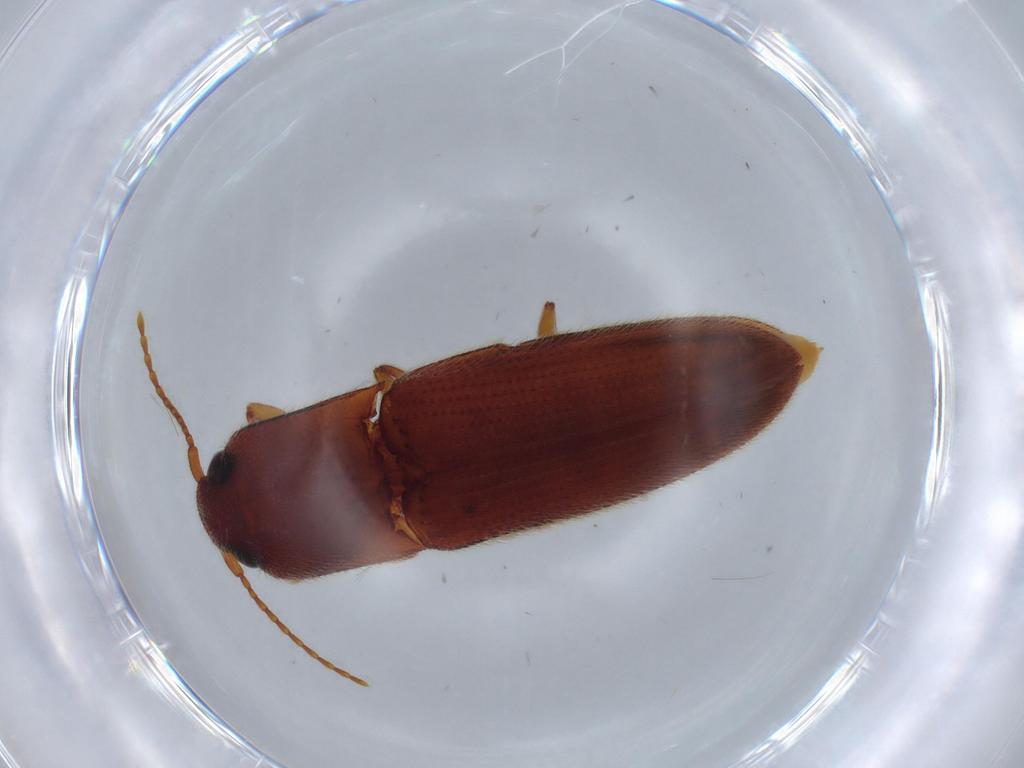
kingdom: Animalia
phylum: Arthropoda
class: Insecta
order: Coleoptera
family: Elateridae
